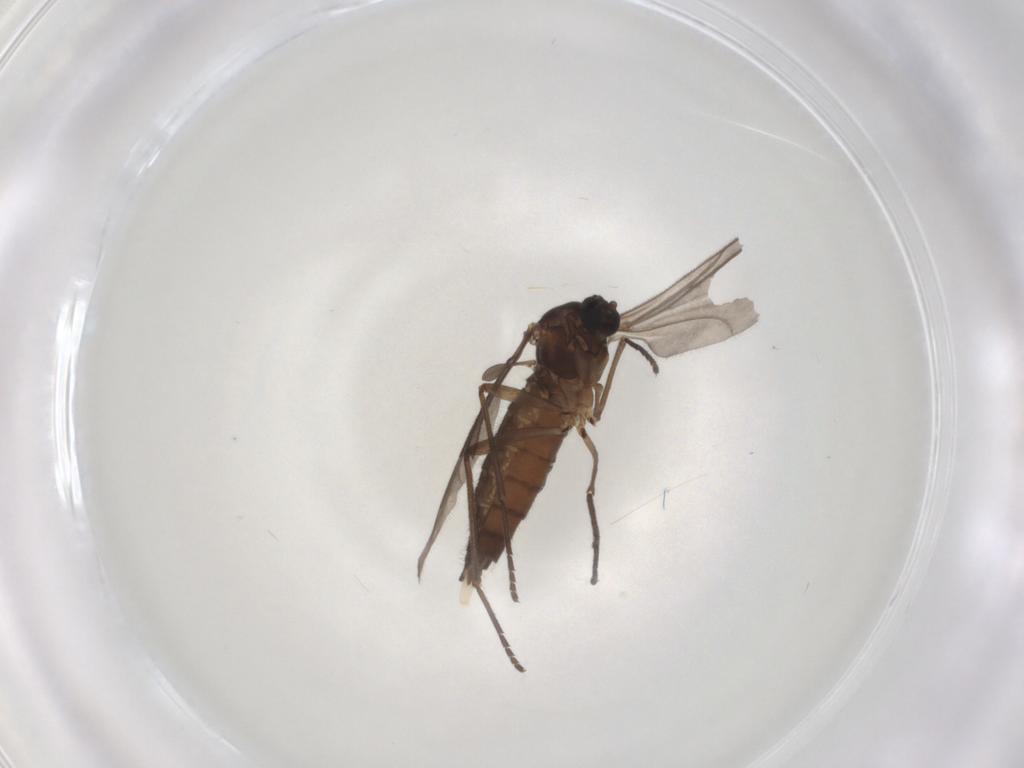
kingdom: Animalia
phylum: Arthropoda
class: Insecta
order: Diptera
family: Sciaridae
